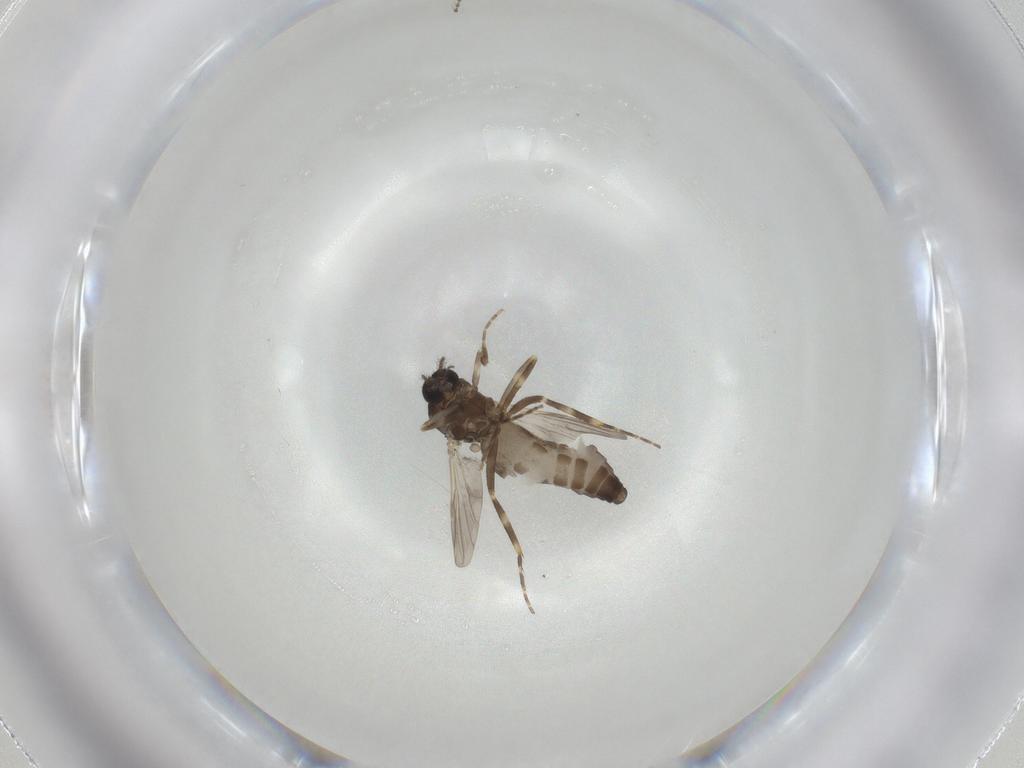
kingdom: Animalia
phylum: Arthropoda
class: Insecta
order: Diptera
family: Ceratopogonidae
